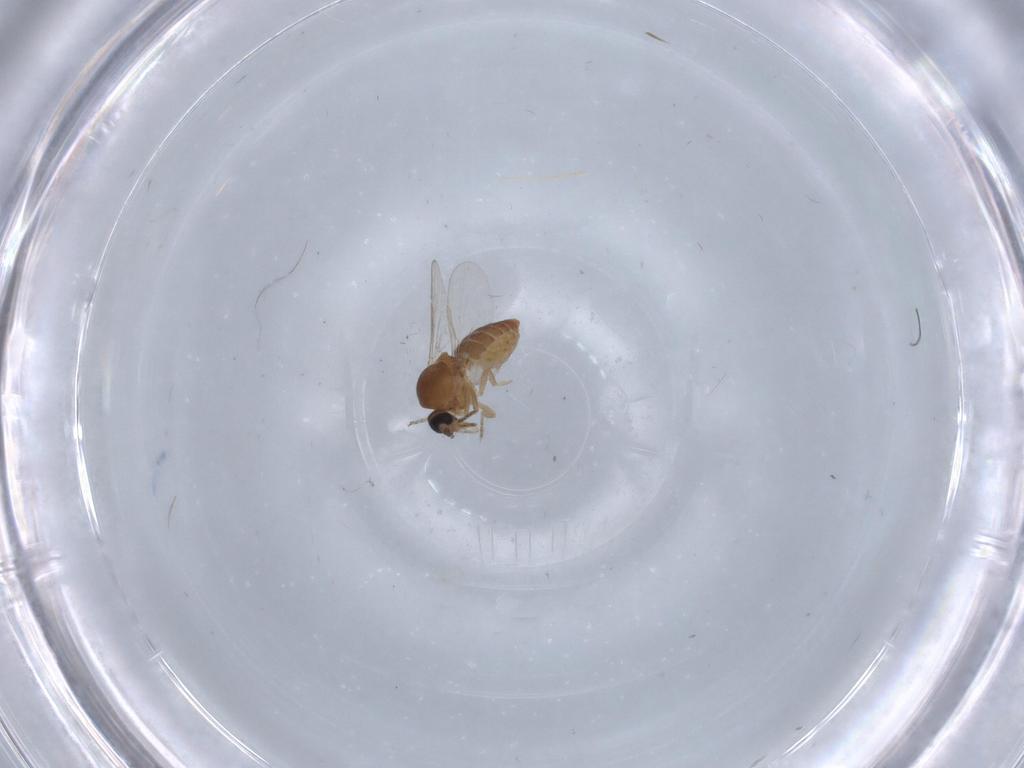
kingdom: Animalia
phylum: Arthropoda
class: Insecta
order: Diptera
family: Ceratopogonidae
